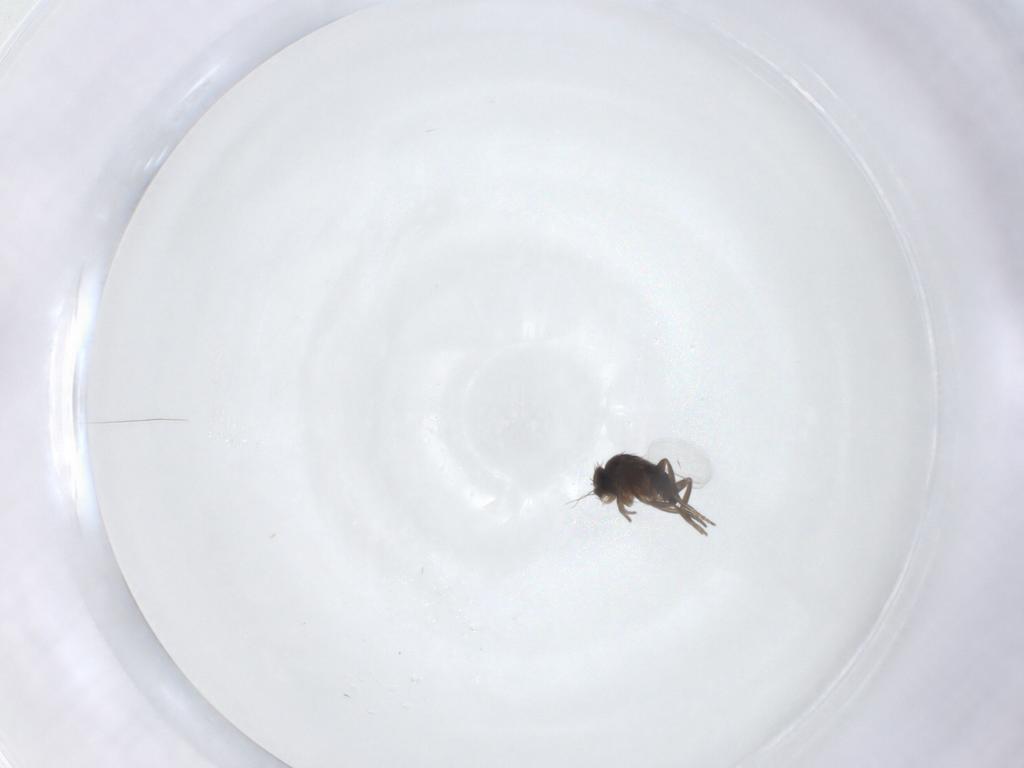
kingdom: Animalia
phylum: Arthropoda
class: Insecta
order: Diptera
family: Phoridae
